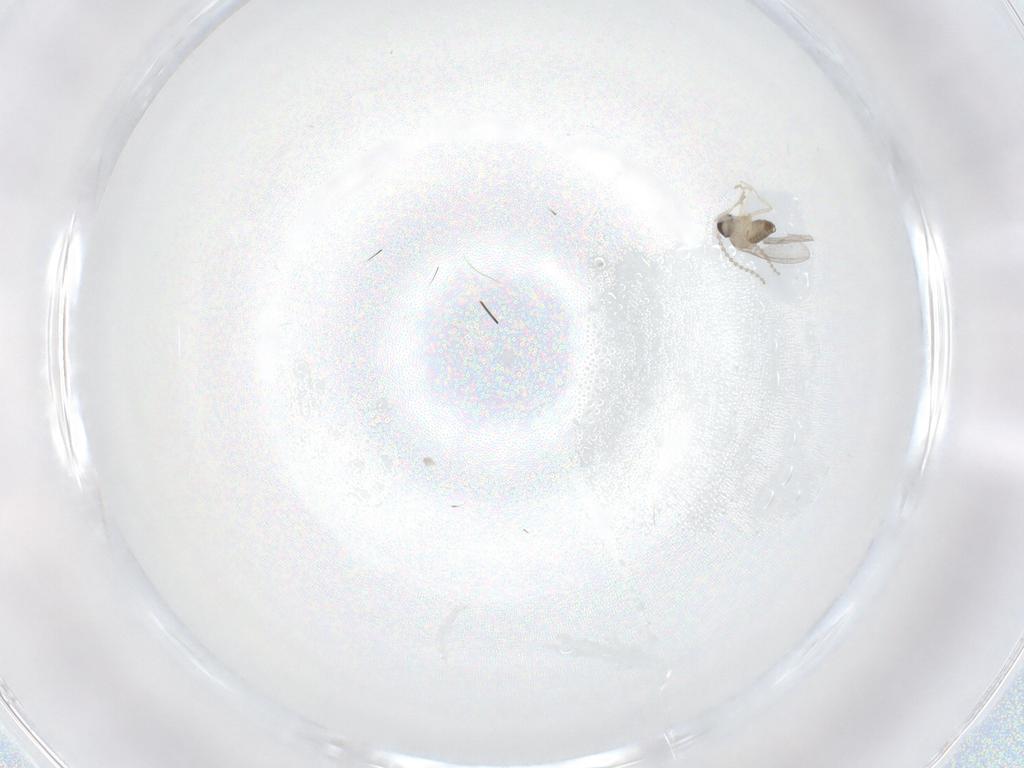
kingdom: Animalia
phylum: Arthropoda
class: Insecta
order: Diptera
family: Cecidomyiidae
